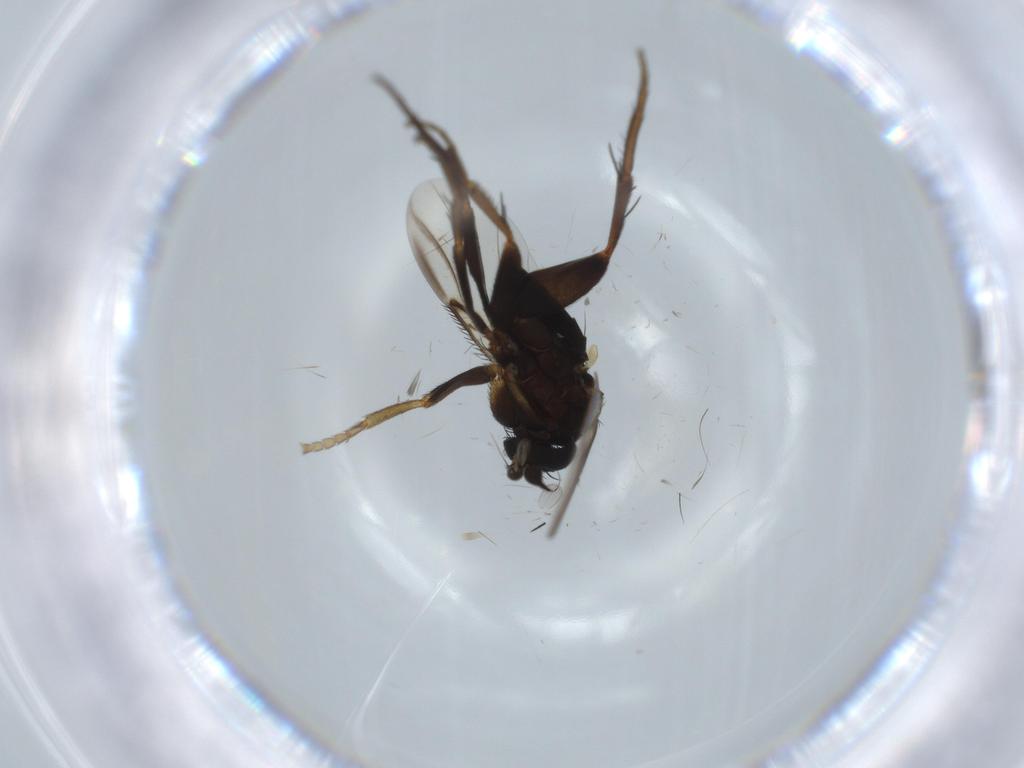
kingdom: Animalia
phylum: Arthropoda
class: Insecta
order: Diptera
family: Phoridae
